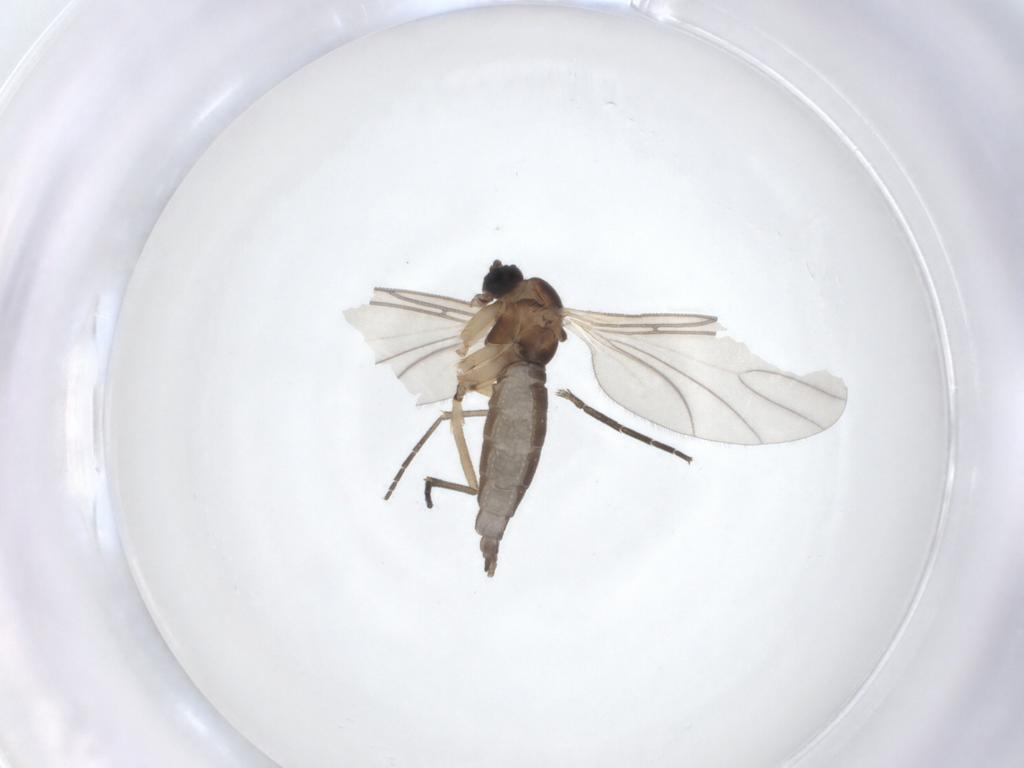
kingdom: Animalia
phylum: Arthropoda
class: Insecta
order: Diptera
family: Sciaridae
